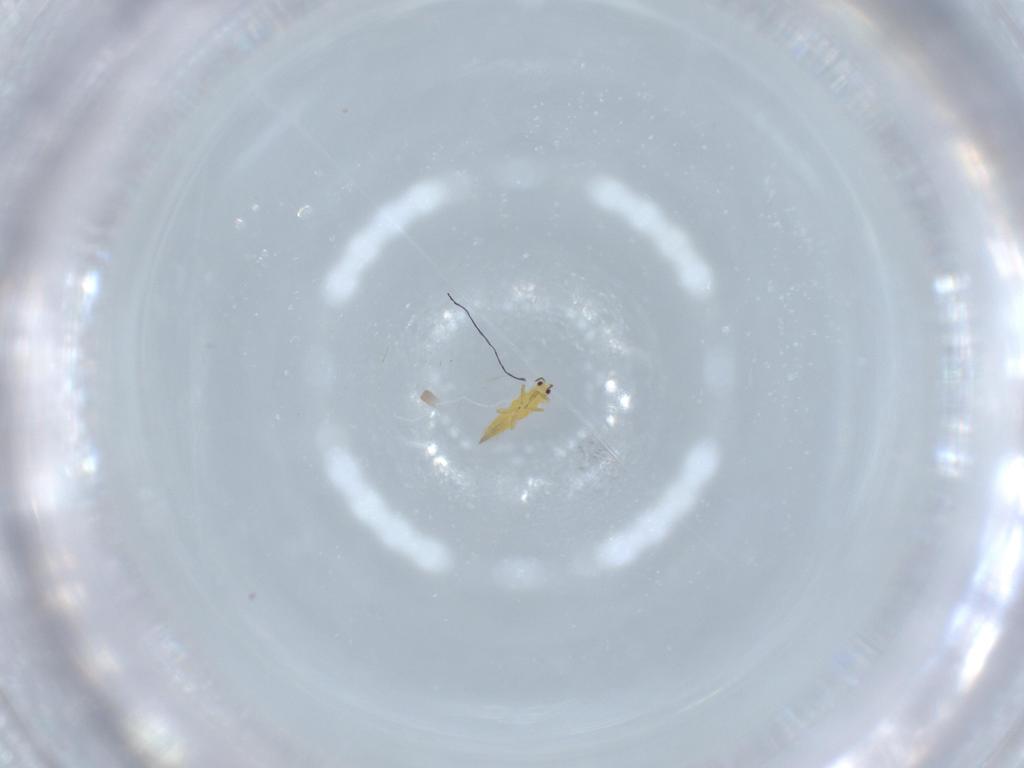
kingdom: Animalia
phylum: Arthropoda
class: Insecta
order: Thysanoptera
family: Thripidae
